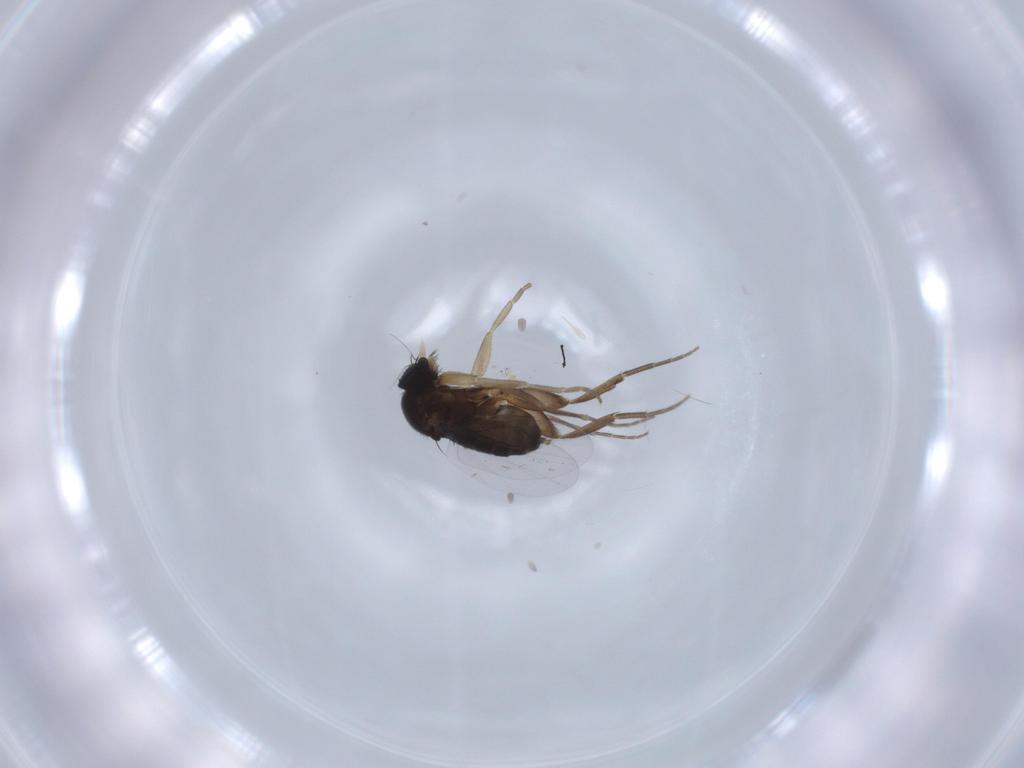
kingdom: Animalia
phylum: Arthropoda
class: Insecta
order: Diptera
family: Phoridae
